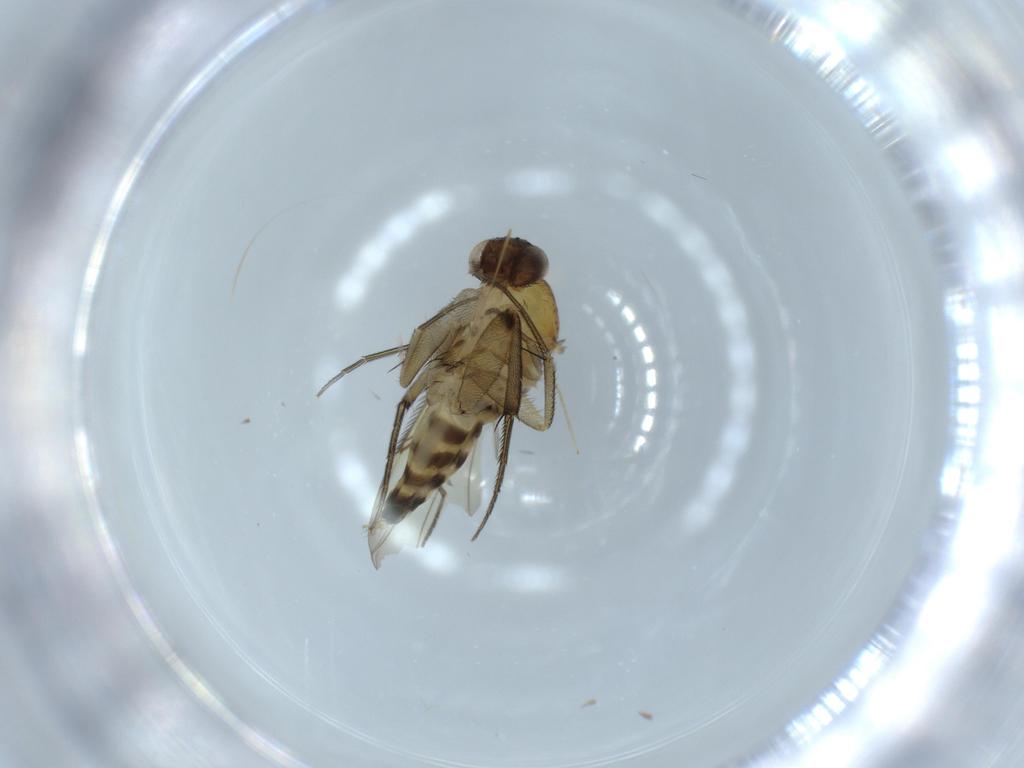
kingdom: Animalia
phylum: Arthropoda
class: Insecta
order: Diptera
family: Phoridae
